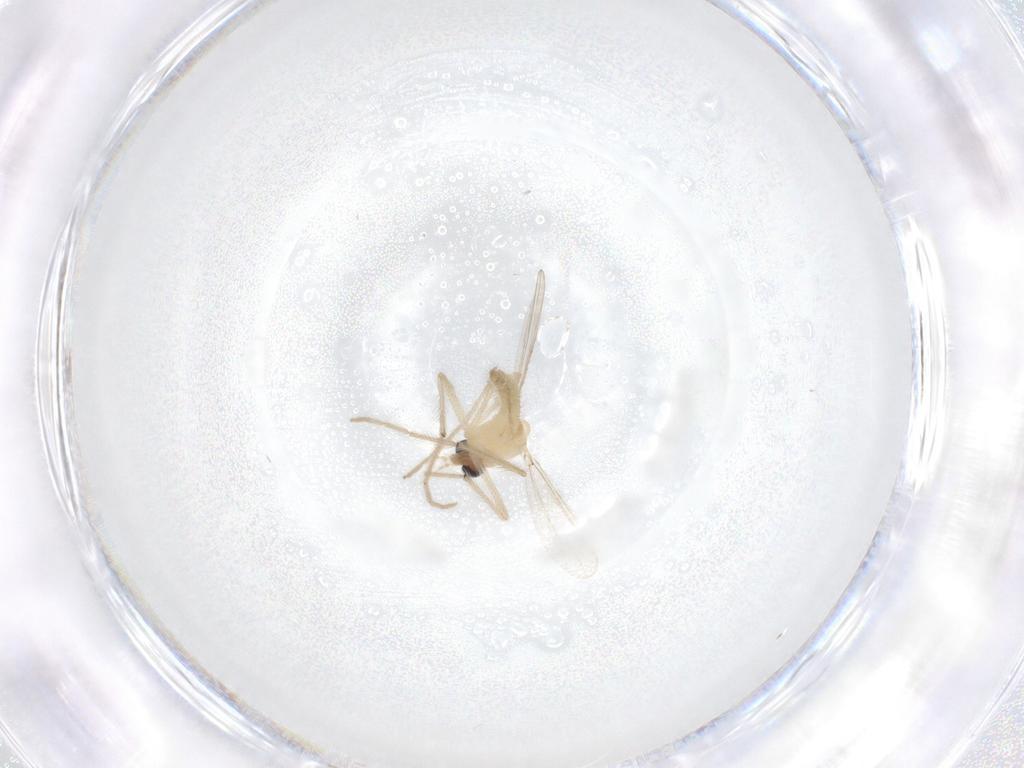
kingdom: Animalia
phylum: Arthropoda
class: Insecta
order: Diptera
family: Chironomidae
